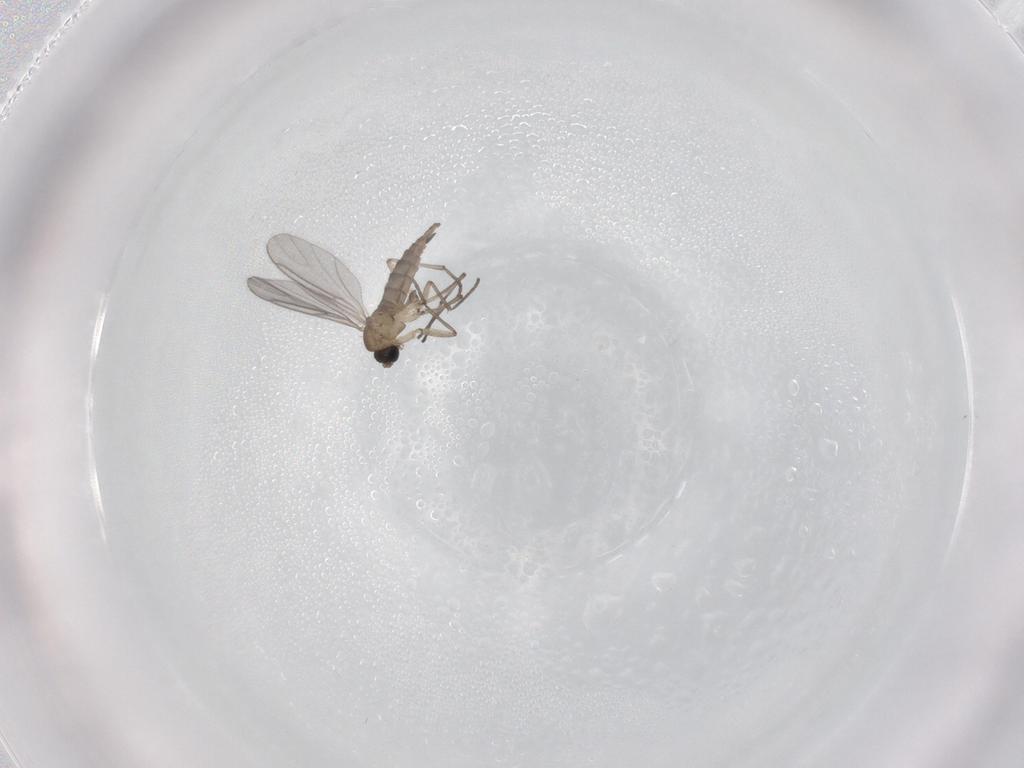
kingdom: Animalia
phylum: Arthropoda
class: Insecta
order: Diptera
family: Sciaridae
